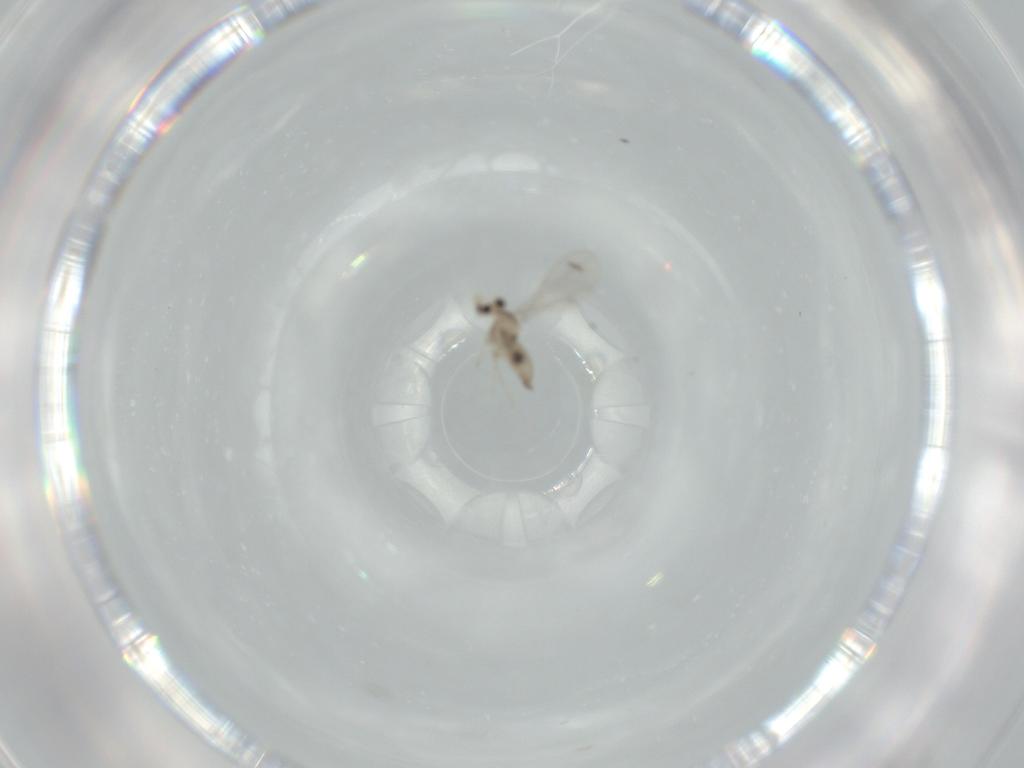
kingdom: Animalia
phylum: Arthropoda
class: Insecta
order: Diptera
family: Cecidomyiidae
